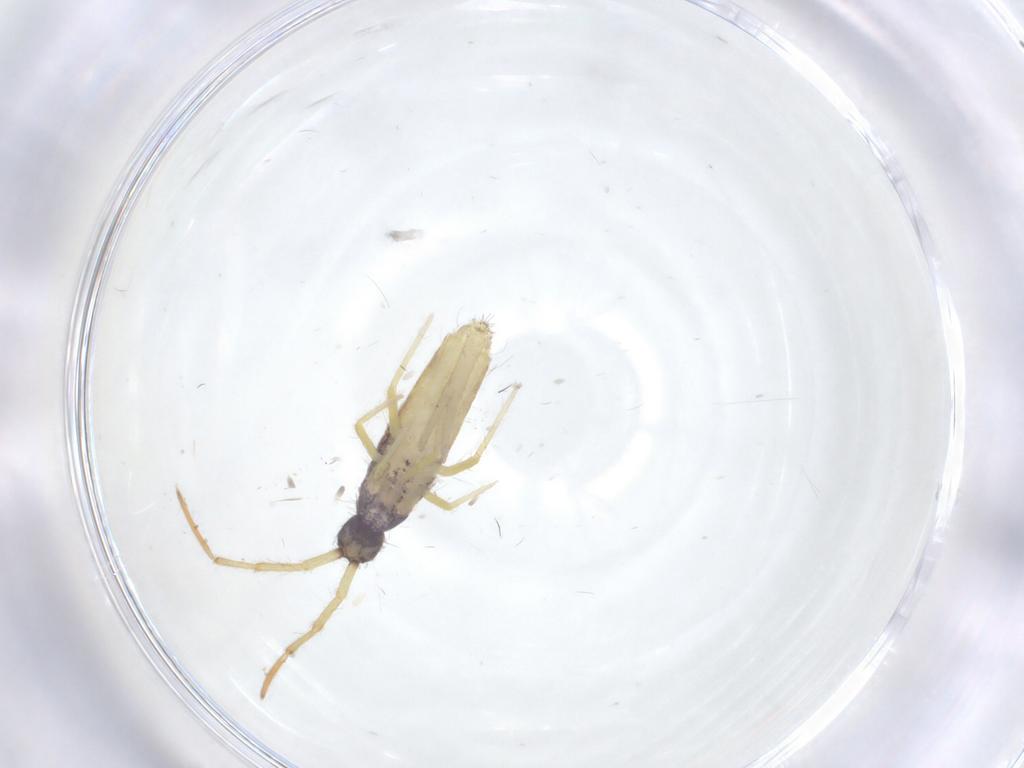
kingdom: Animalia
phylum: Arthropoda
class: Collembola
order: Entomobryomorpha
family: Entomobryidae
